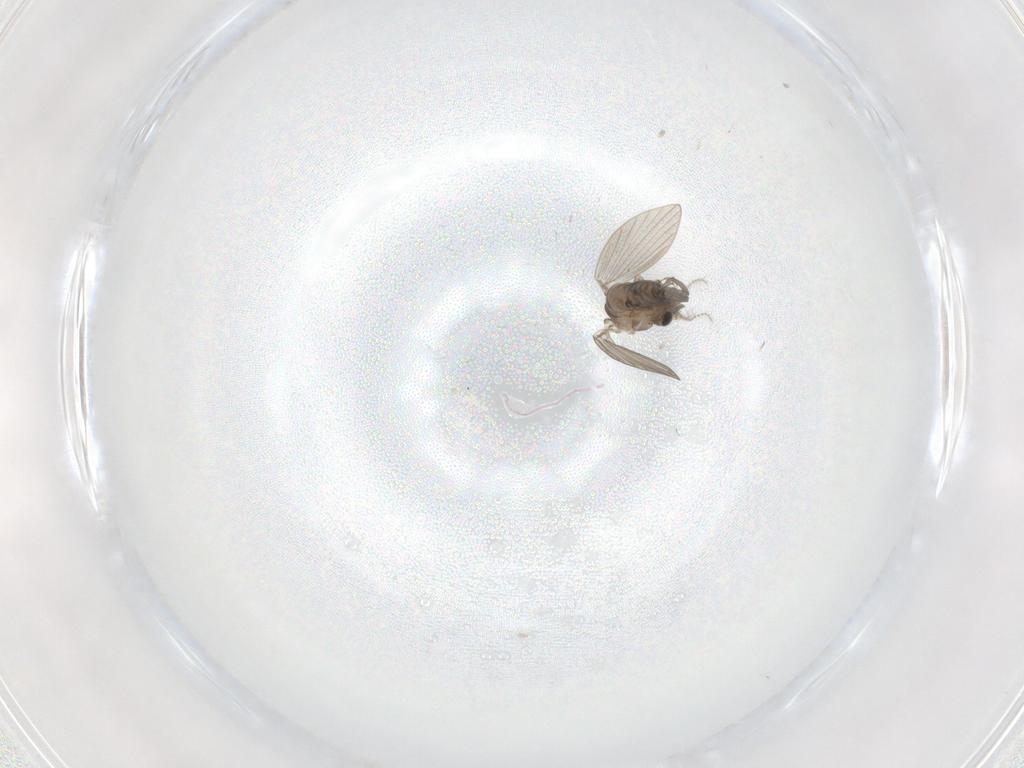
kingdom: Animalia
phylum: Arthropoda
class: Insecta
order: Diptera
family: Psychodidae
